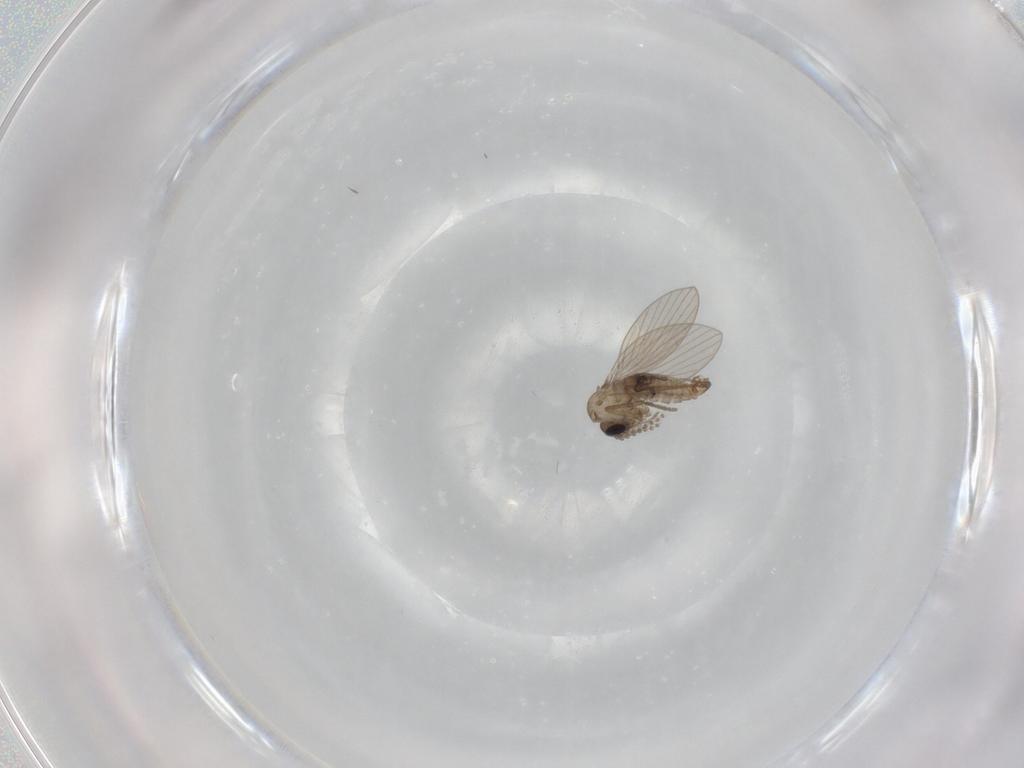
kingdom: Animalia
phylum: Arthropoda
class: Insecta
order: Diptera
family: Psychodidae
